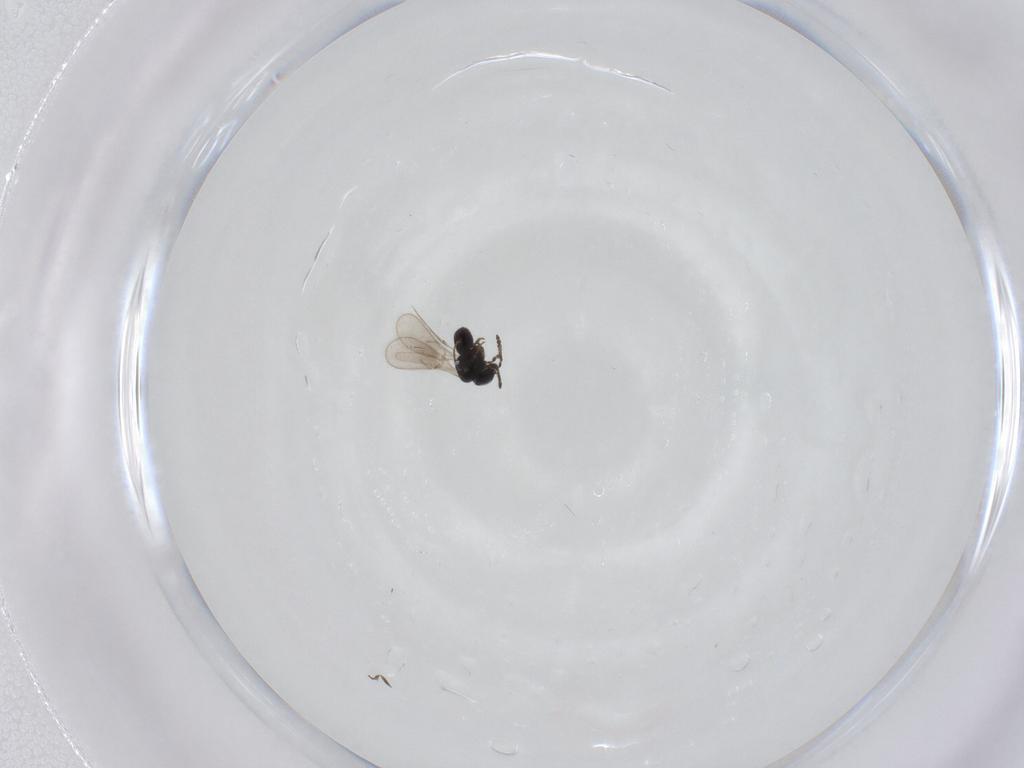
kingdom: Animalia
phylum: Arthropoda
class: Insecta
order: Hymenoptera
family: Scelionidae
